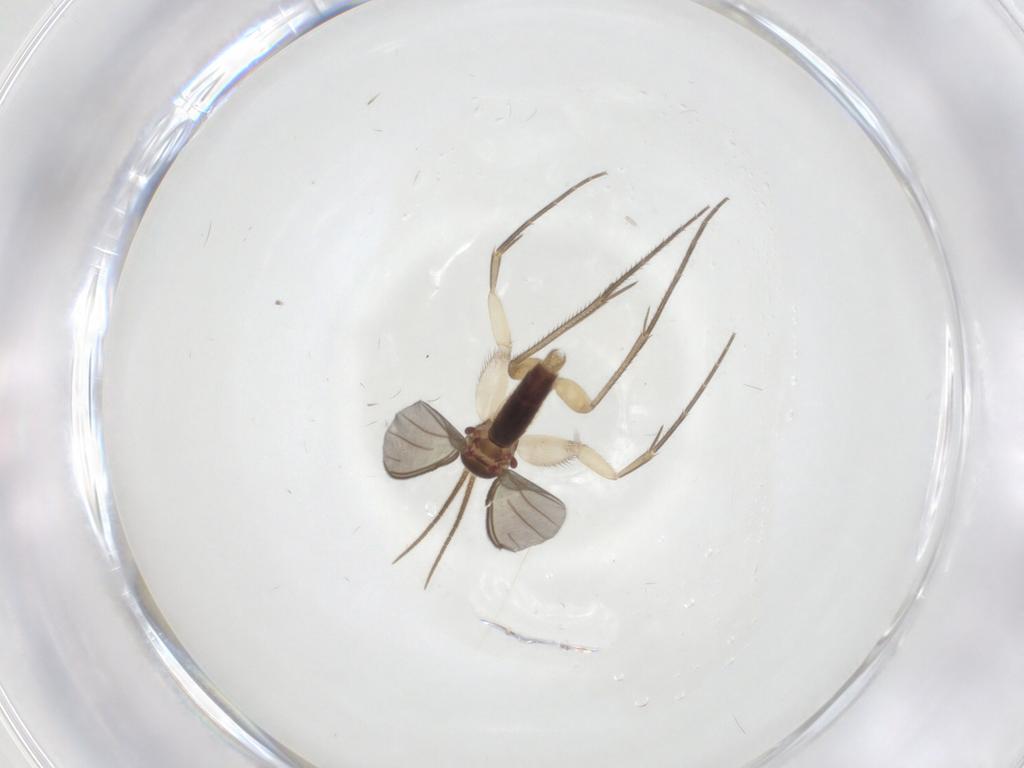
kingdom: Animalia
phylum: Arthropoda
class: Insecta
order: Diptera
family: Mycetophilidae
